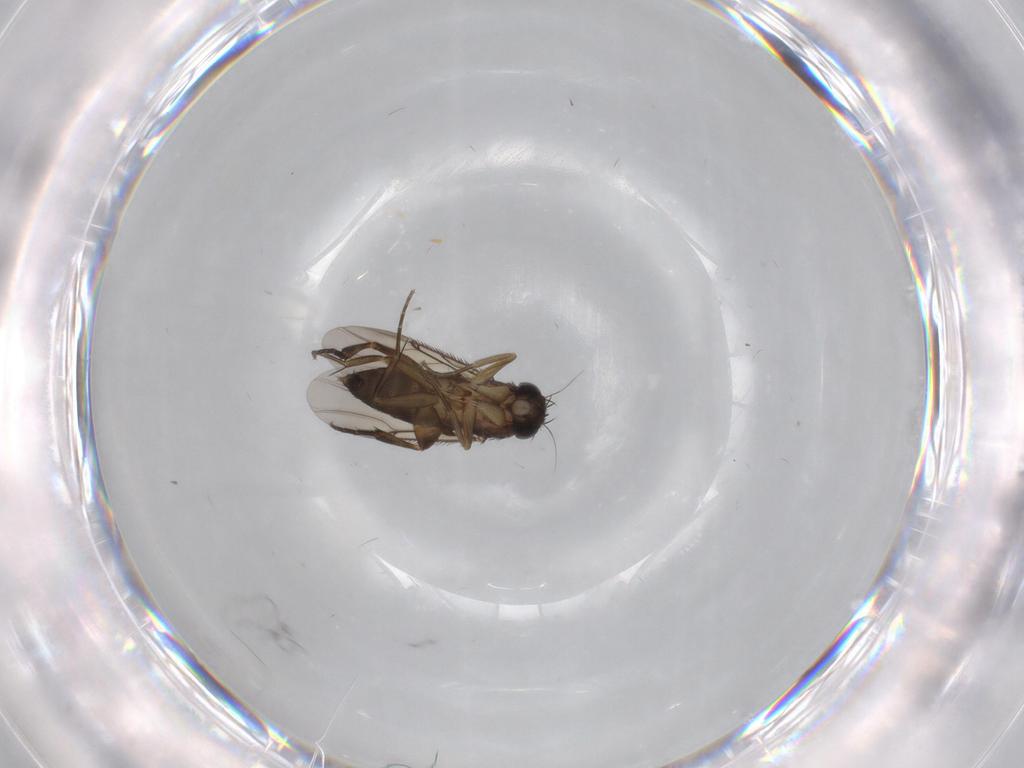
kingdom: Animalia
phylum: Arthropoda
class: Insecta
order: Diptera
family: Phoridae
